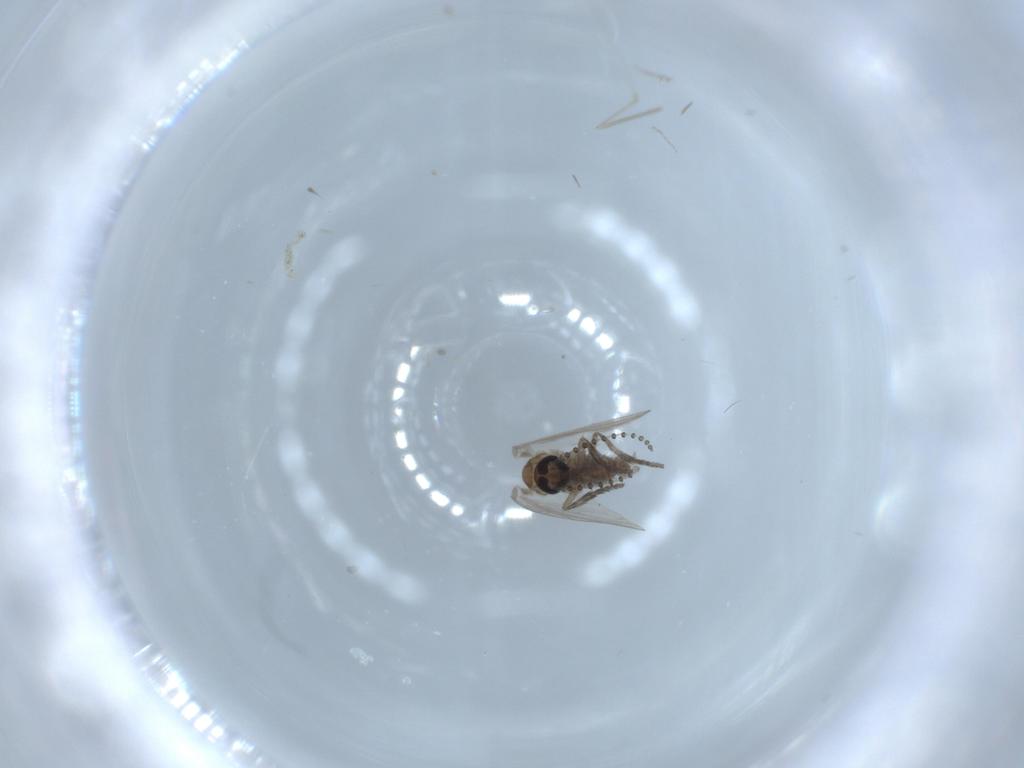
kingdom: Animalia
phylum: Arthropoda
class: Insecta
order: Diptera
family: Psychodidae
